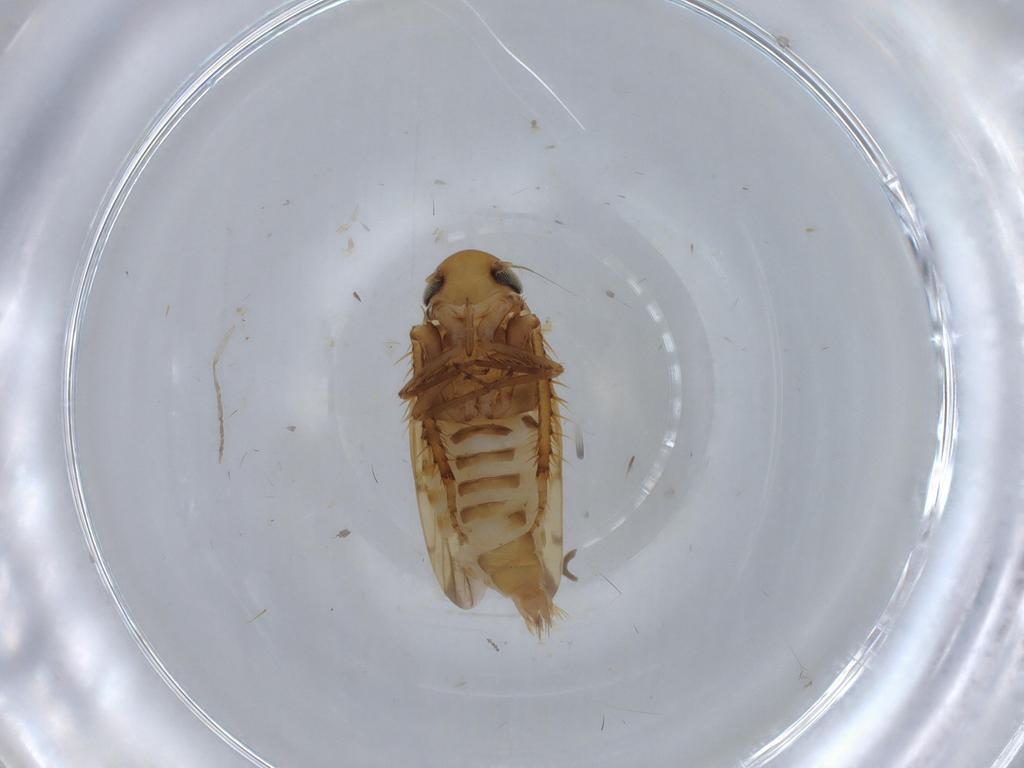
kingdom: Animalia
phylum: Arthropoda
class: Insecta
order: Hemiptera
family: Cicadellidae
